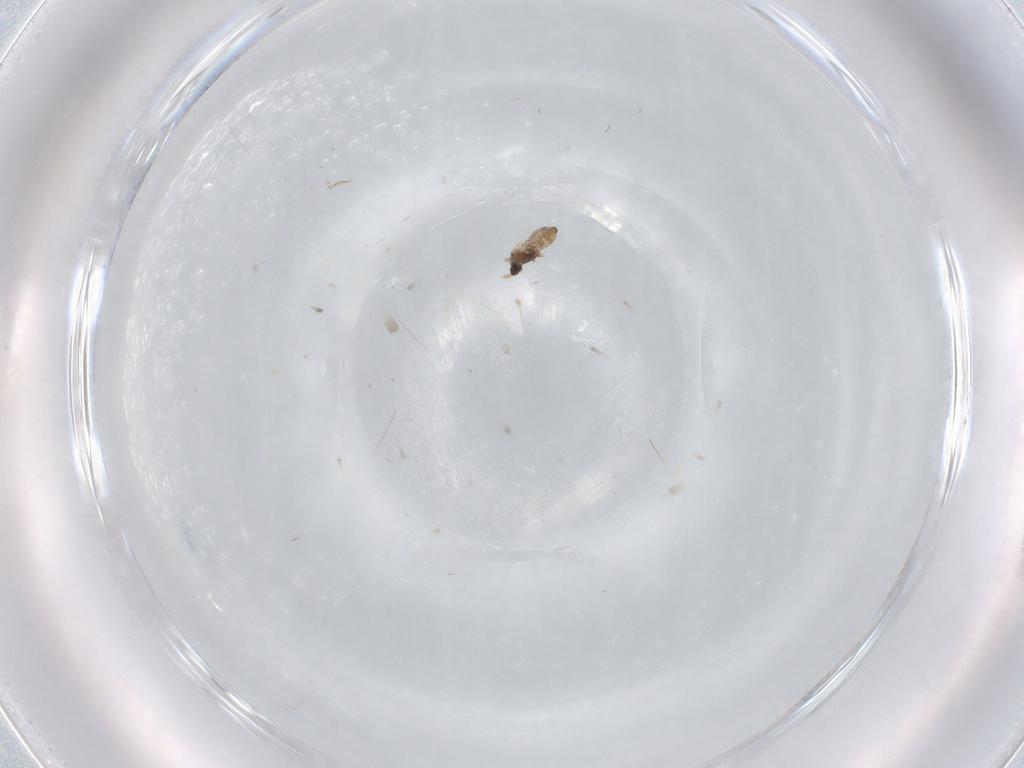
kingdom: Animalia
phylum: Arthropoda
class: Insecta
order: Diptera
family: Cecidomyiidae
